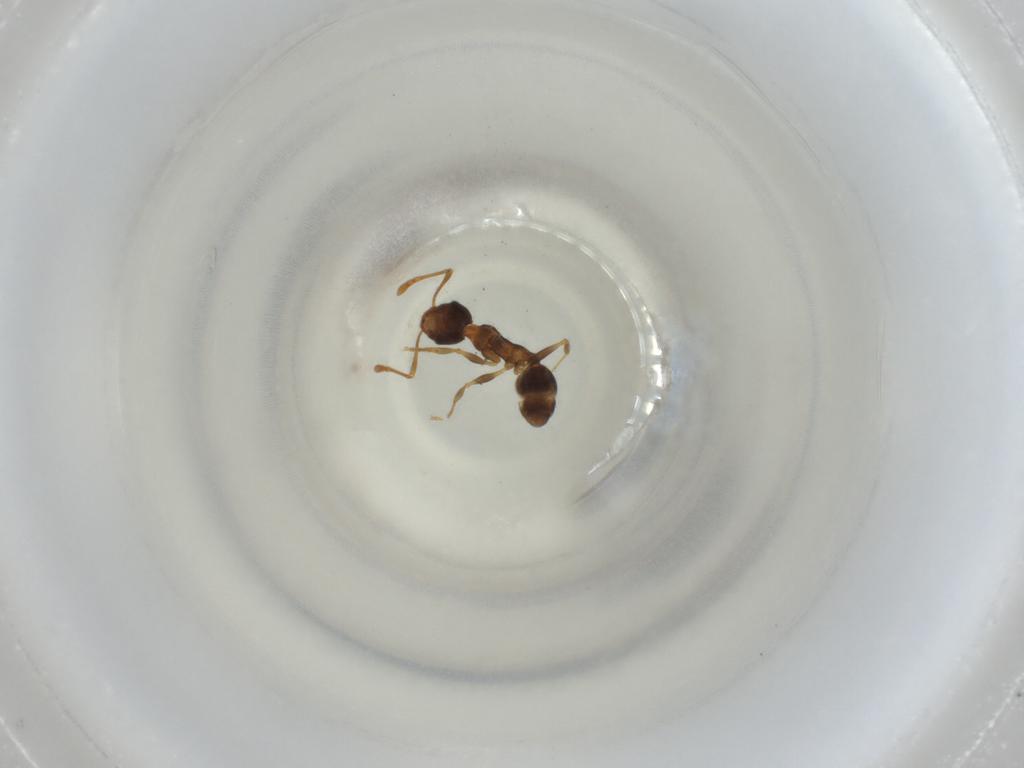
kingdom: Animalia
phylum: Arthropoda
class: Insecta
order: Hymenoptera
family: Formicidae
